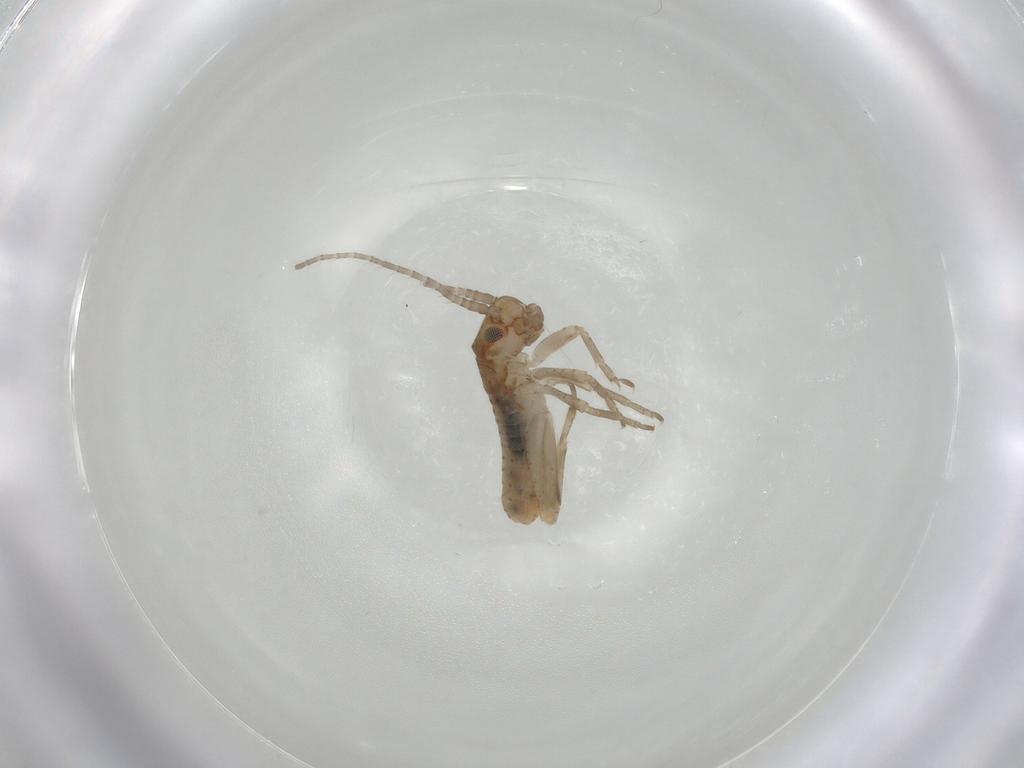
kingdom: Animalia
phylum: Arthropoda
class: Insecta
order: Orthoptera
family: Mogoplistidae
